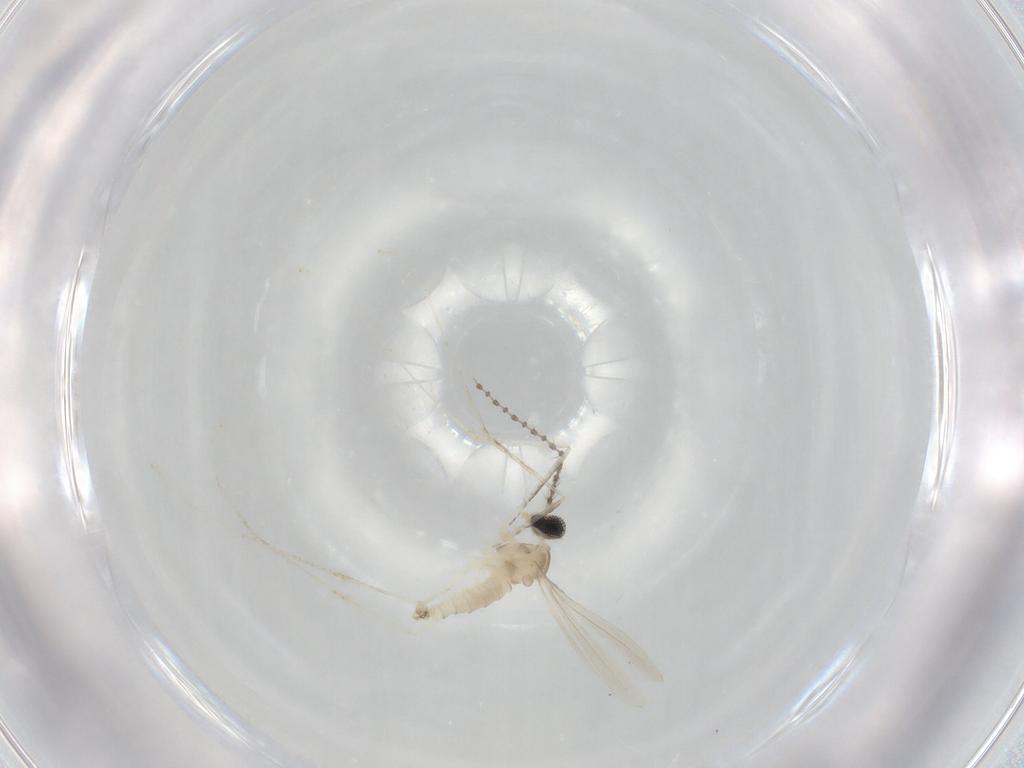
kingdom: Animalia
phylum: Arthropoda
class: Insecta
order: Diptera
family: Cecidomyiidae
